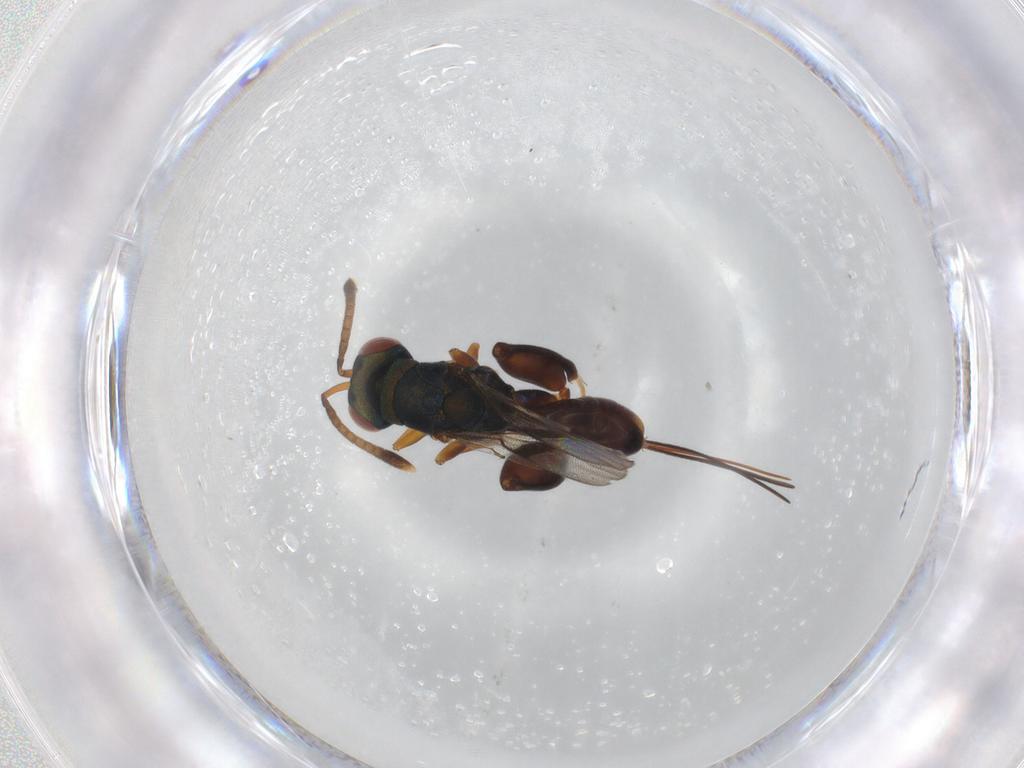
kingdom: Animalia
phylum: Arthropoda
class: Insecta
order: Hymenoptera
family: Torymidae
